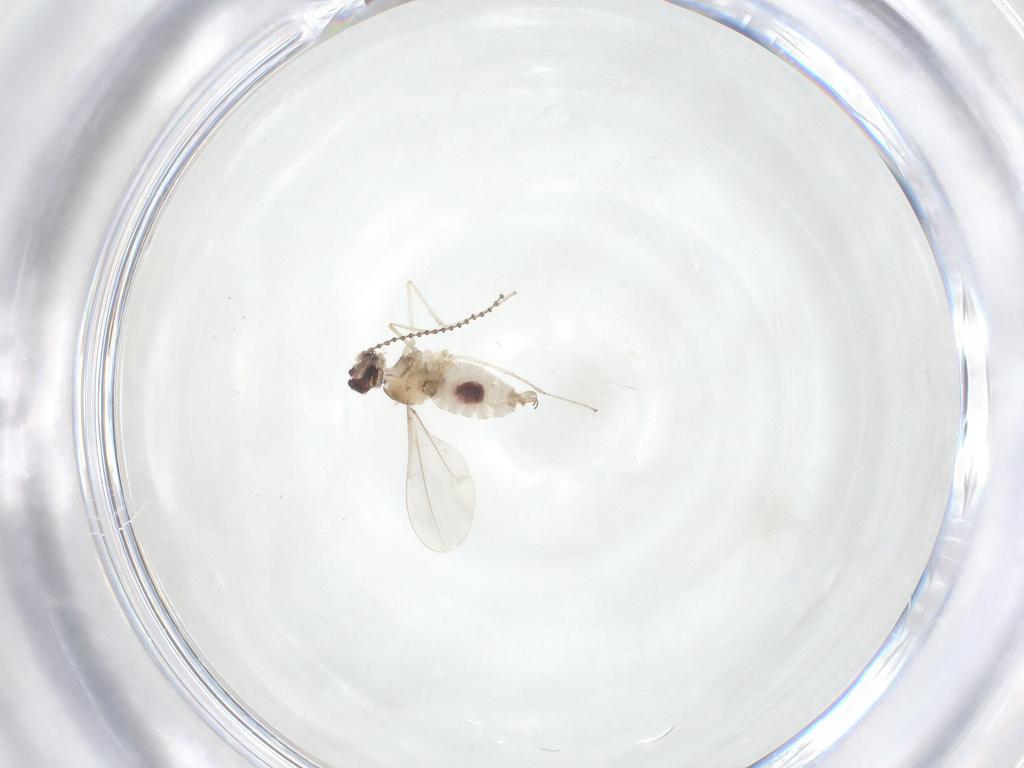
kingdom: Animalia
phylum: Arthropoda
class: Insecta
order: Diptera
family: Cecidomyiidae
